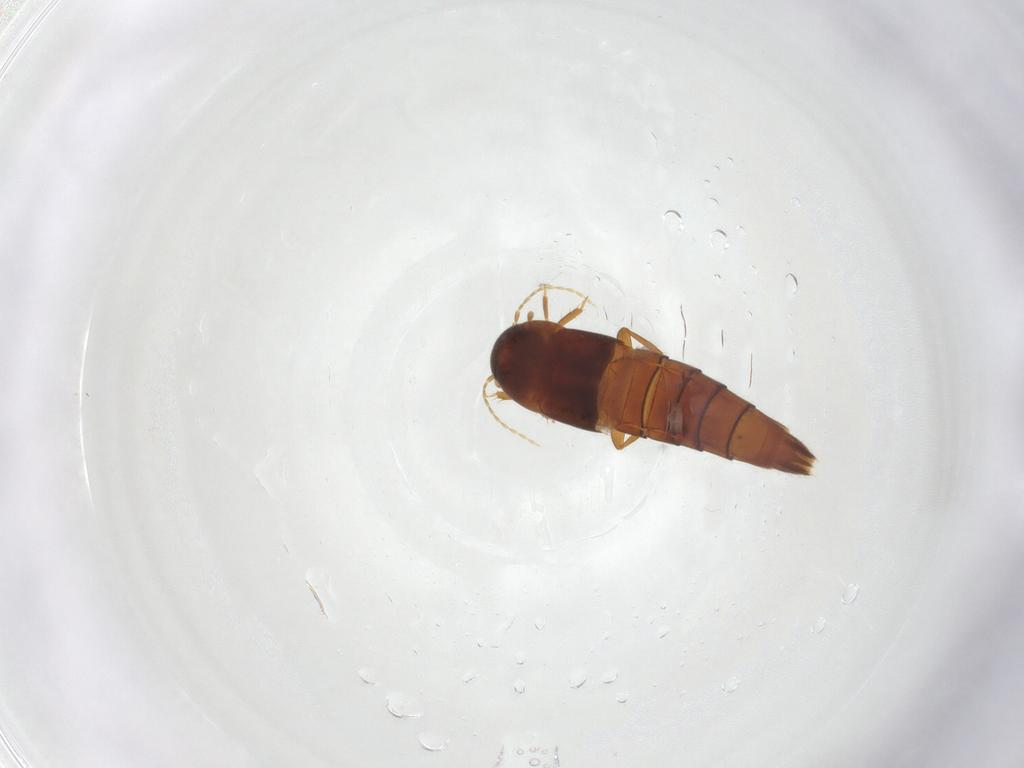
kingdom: Animalia
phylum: Arthropoda
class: Insecta
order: Coleoptera
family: Staphylinidae
